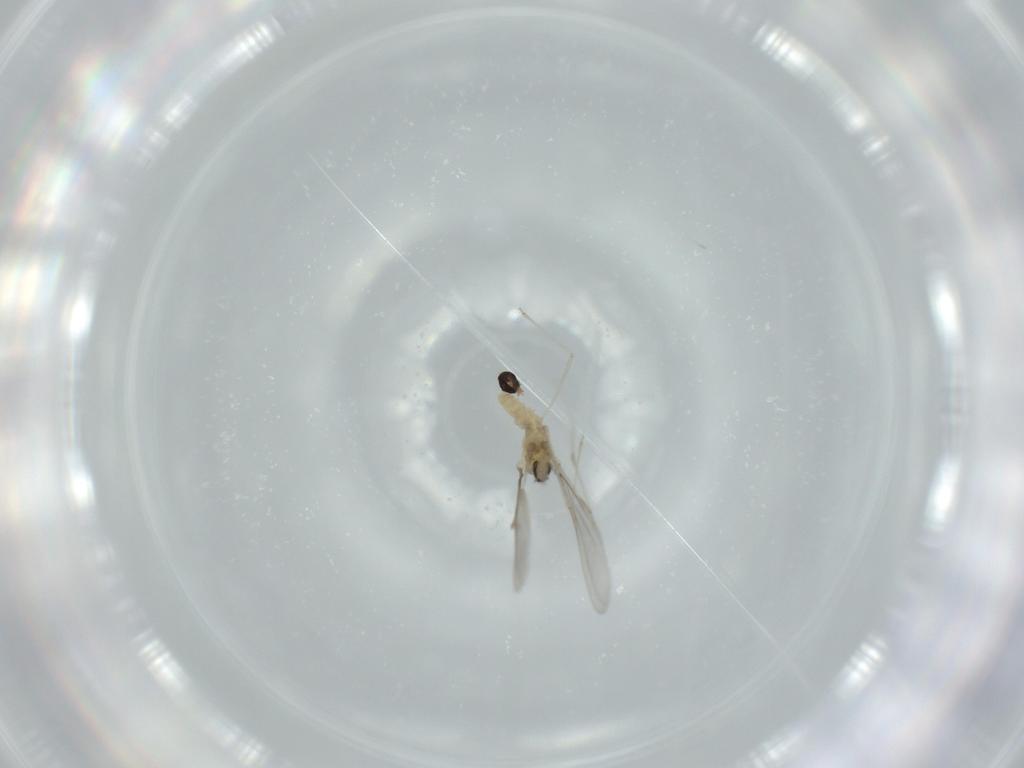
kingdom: Animalia
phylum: Arthropoda
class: Insecta
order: Diptera
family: Cecidomyiidae
